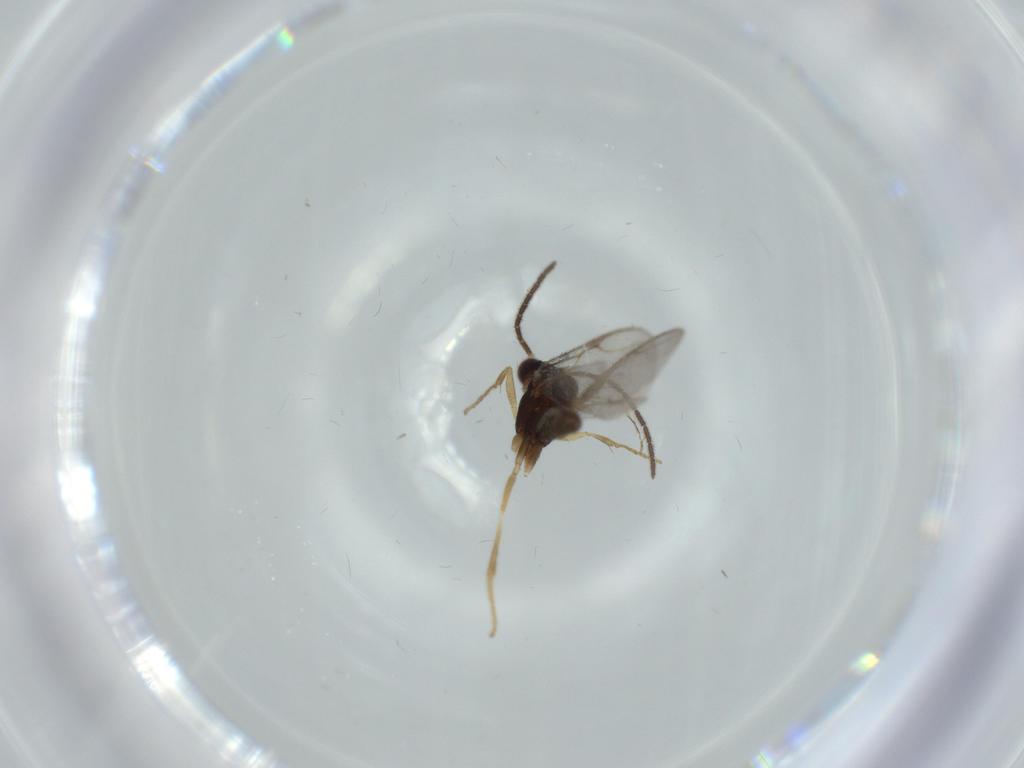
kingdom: Animalia
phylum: Arthropoda
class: Insecta
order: Hymenoptera
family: Dryinidae
